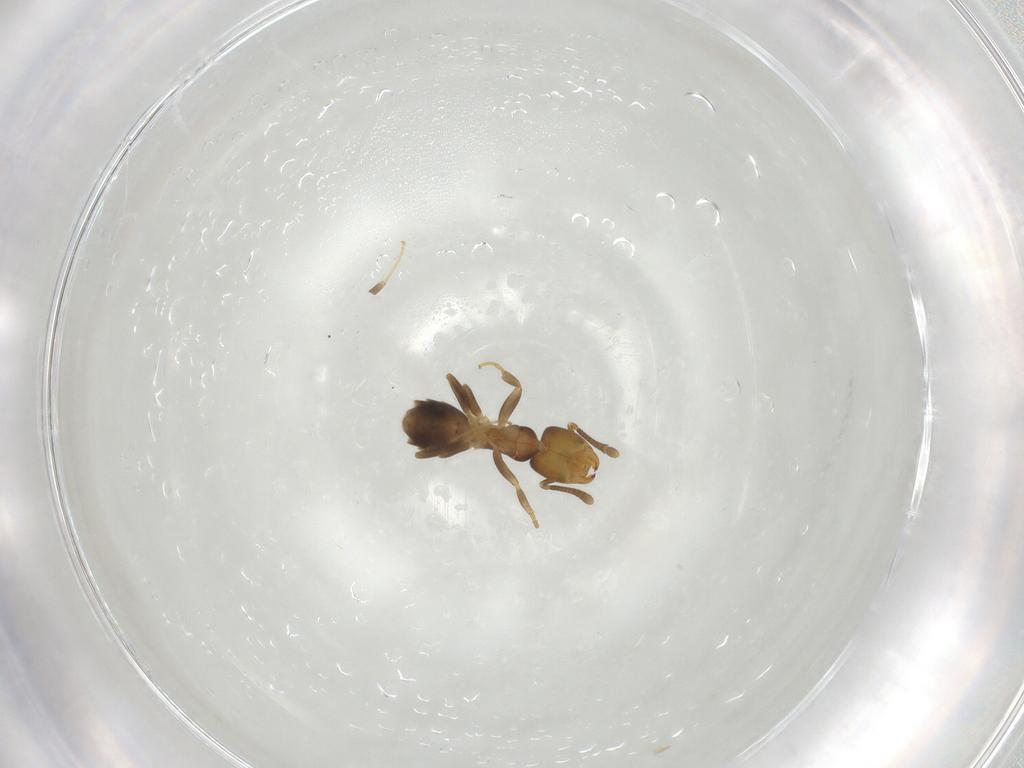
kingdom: Animalia
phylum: Arthropoda
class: Insecta
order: Hymenoptera
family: Formicidae
